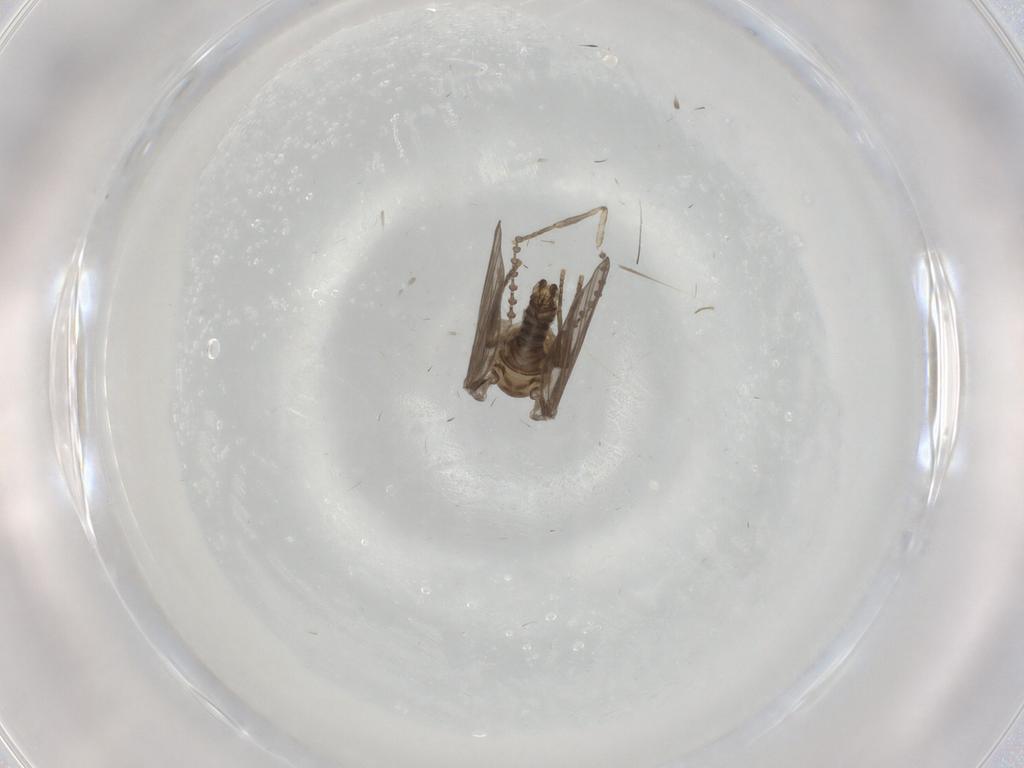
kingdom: Animalia
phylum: Arthropoda
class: Insecta
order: Diptera
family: Psychodidae
